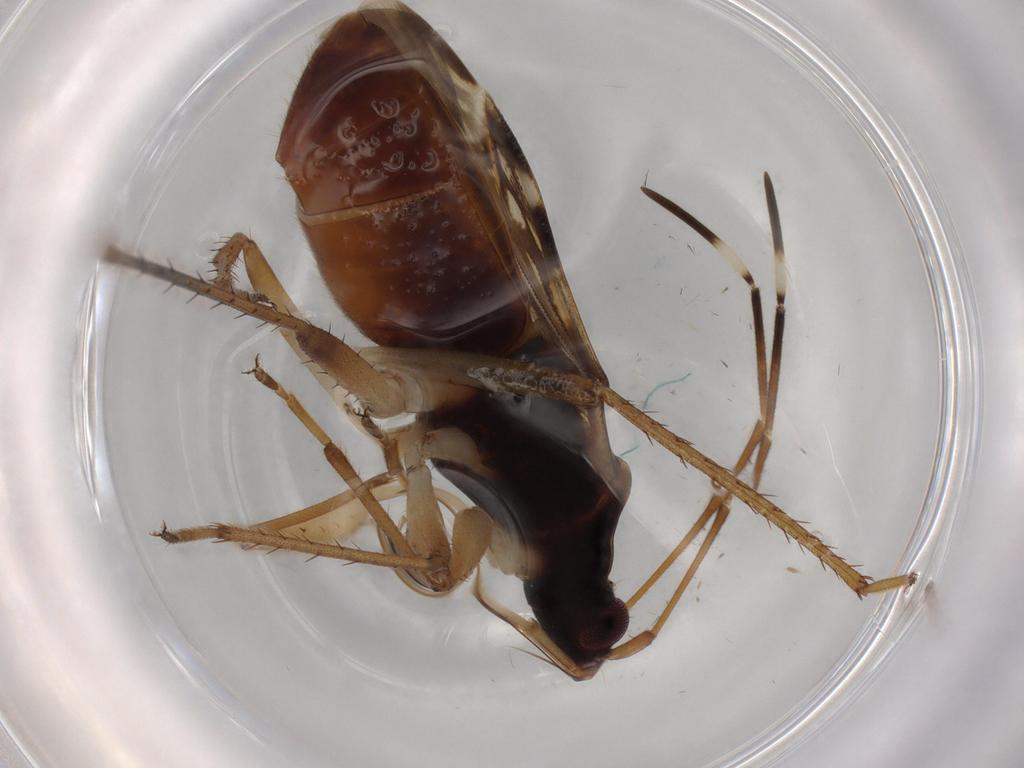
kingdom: Animalia
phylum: Arthropoda
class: Insecta
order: Hemiptera
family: Rhyparochromidae
